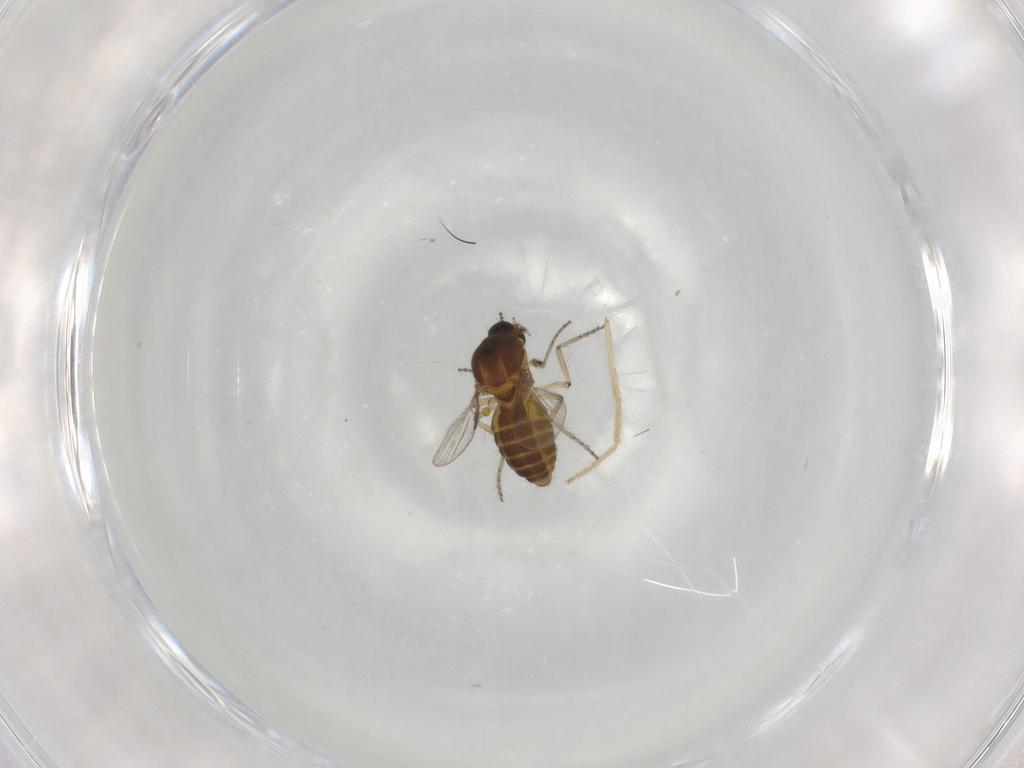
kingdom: Animalia
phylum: Arthropoda
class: Insecta
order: Diptera
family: Ceratopogonidae
